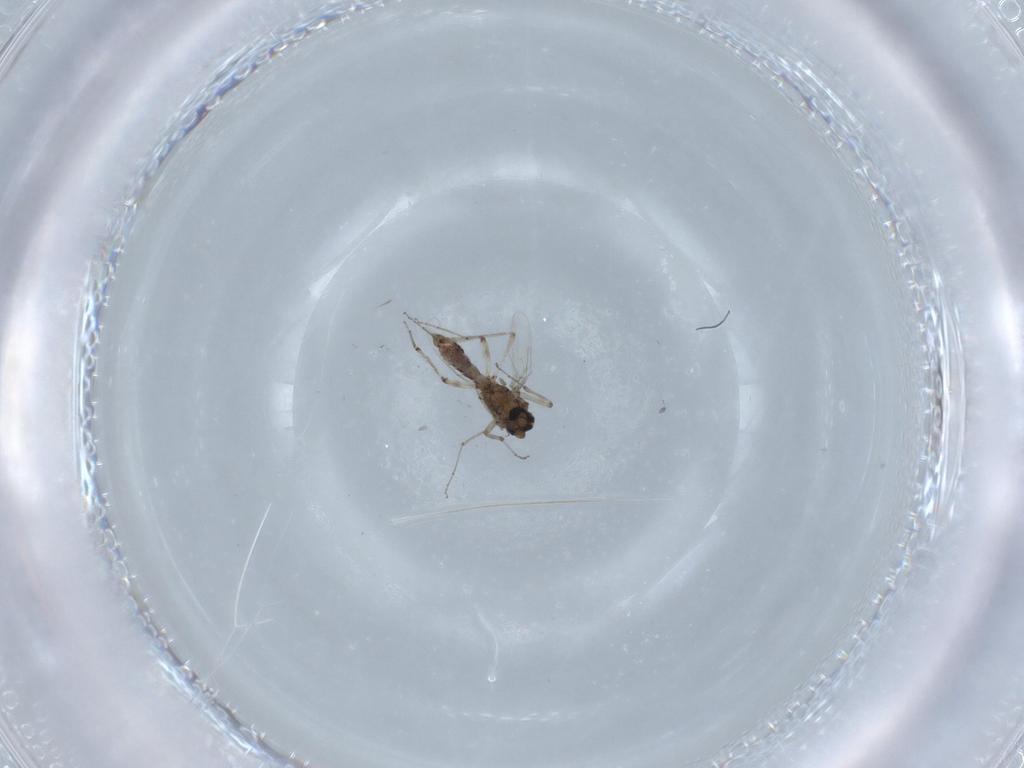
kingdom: Animalia
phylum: Arthropoda
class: Insecta
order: Diptera
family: Ceratopogonidae
